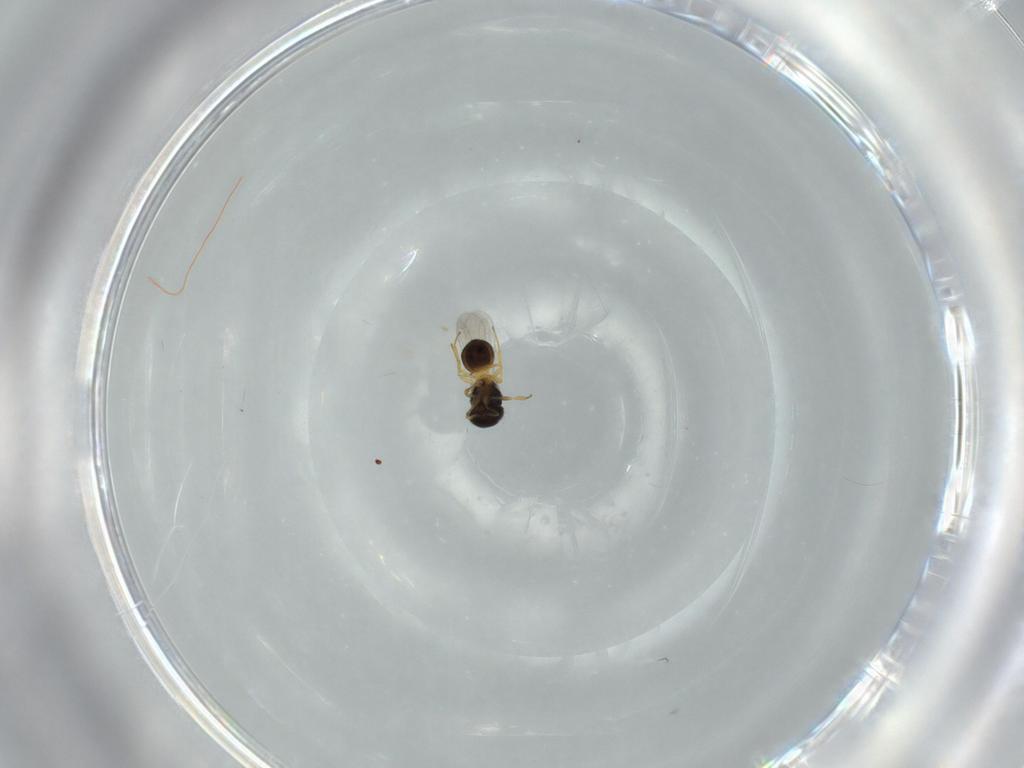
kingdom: Animalia
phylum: Arthropoda
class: Insecta
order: Hymenoptera
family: Scelionidae
